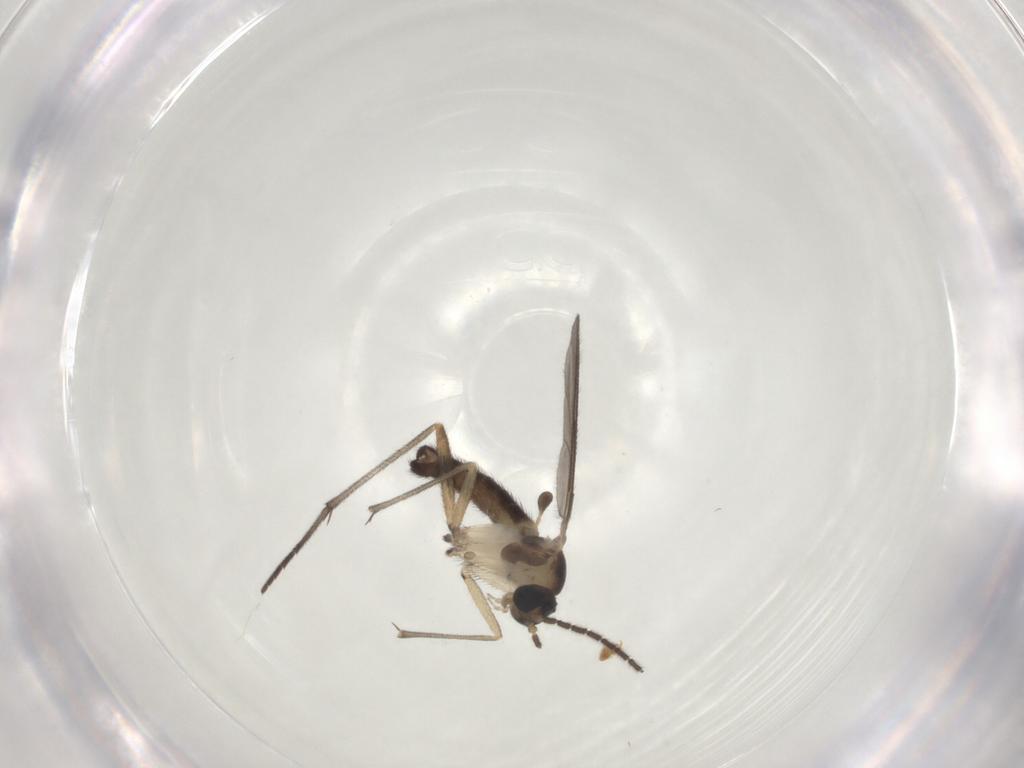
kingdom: Animalia
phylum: Arthropoda
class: Insecta
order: Diptera
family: Sciaridae
